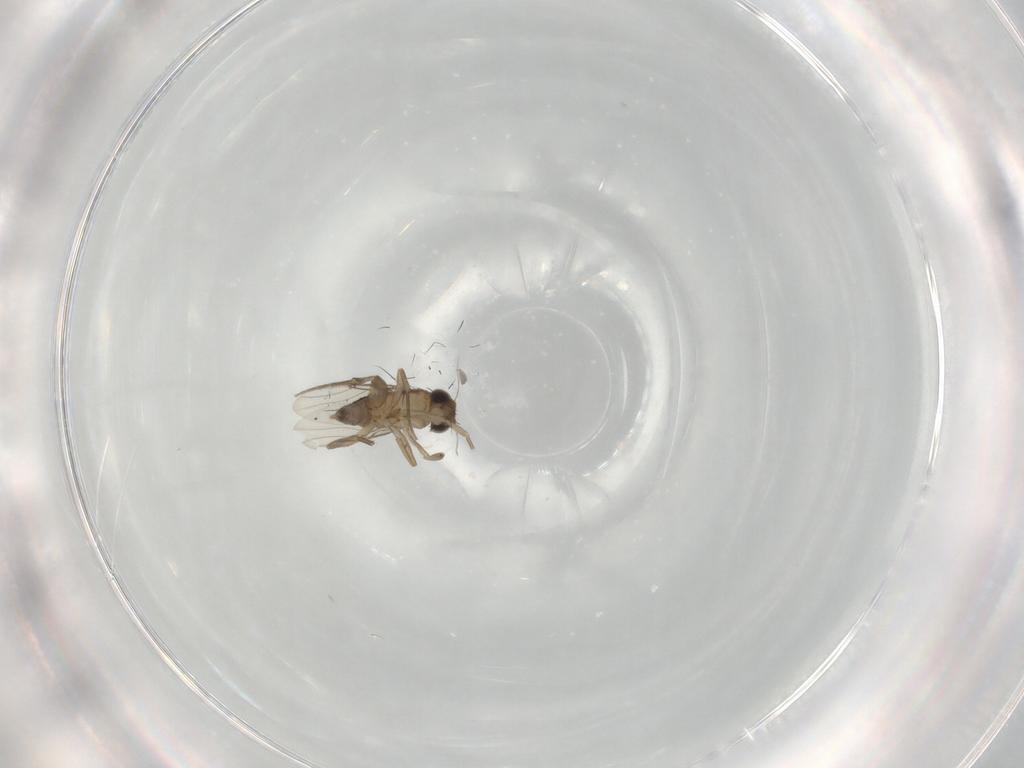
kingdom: Animalia
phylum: Arthropoda
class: Insecta
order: Diptera
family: Phoridae
